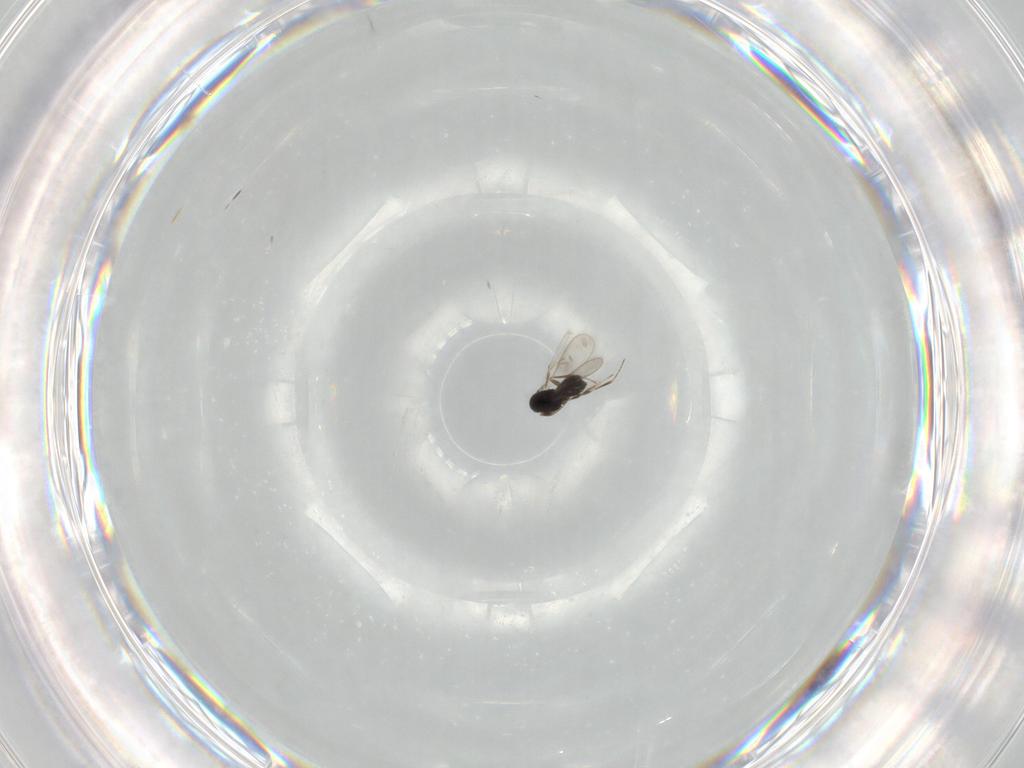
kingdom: Animalia
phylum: Arthropoda
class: Insecta
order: Hymenoptera
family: Scelionidae
